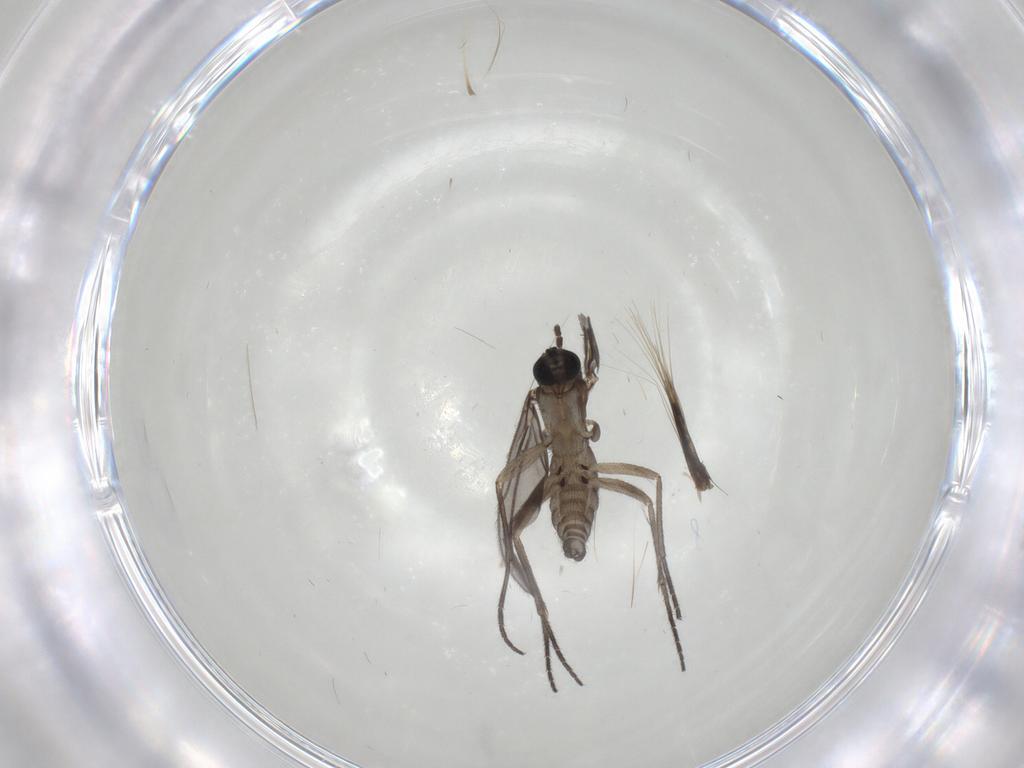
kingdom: Animalia
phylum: Arthropoda
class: Insecta
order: Diptera
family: Sciaridae
